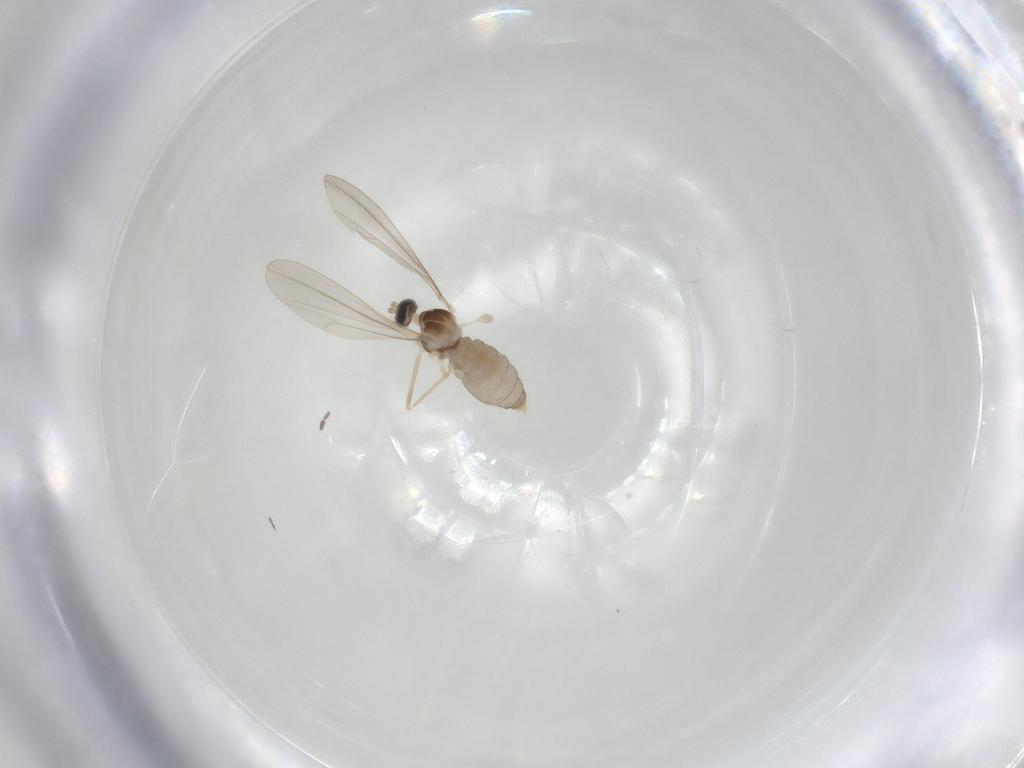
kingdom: Animalia
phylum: Arthropoda
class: Insecta
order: Diptera
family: Cecidomyiidae
